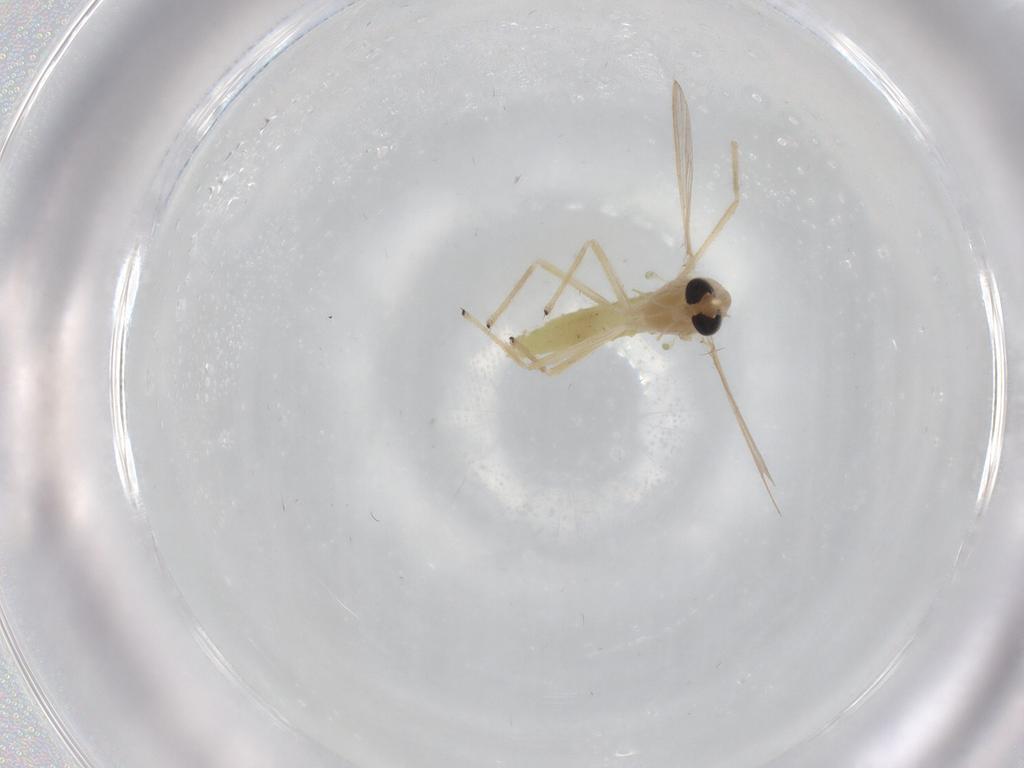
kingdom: Animalia
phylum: Arthropoda
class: Insecta
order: Diptera
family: Chironomidae
